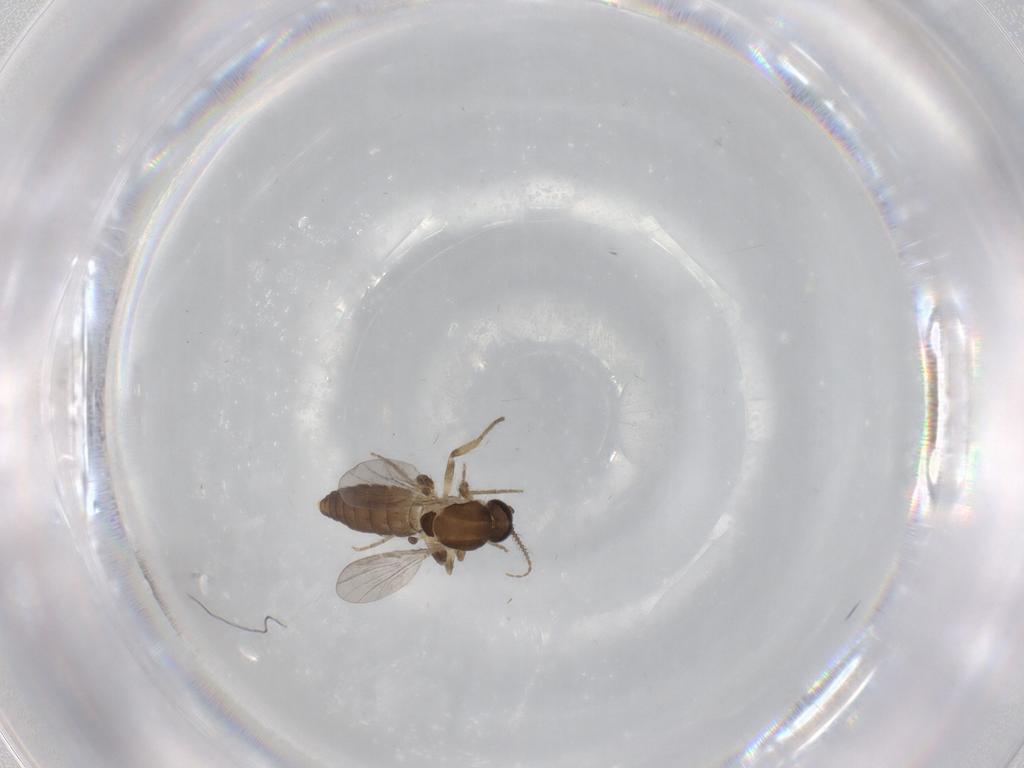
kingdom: Animalia
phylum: Arthropoda
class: Insecta
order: Diptera
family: Ceratopogonidae
